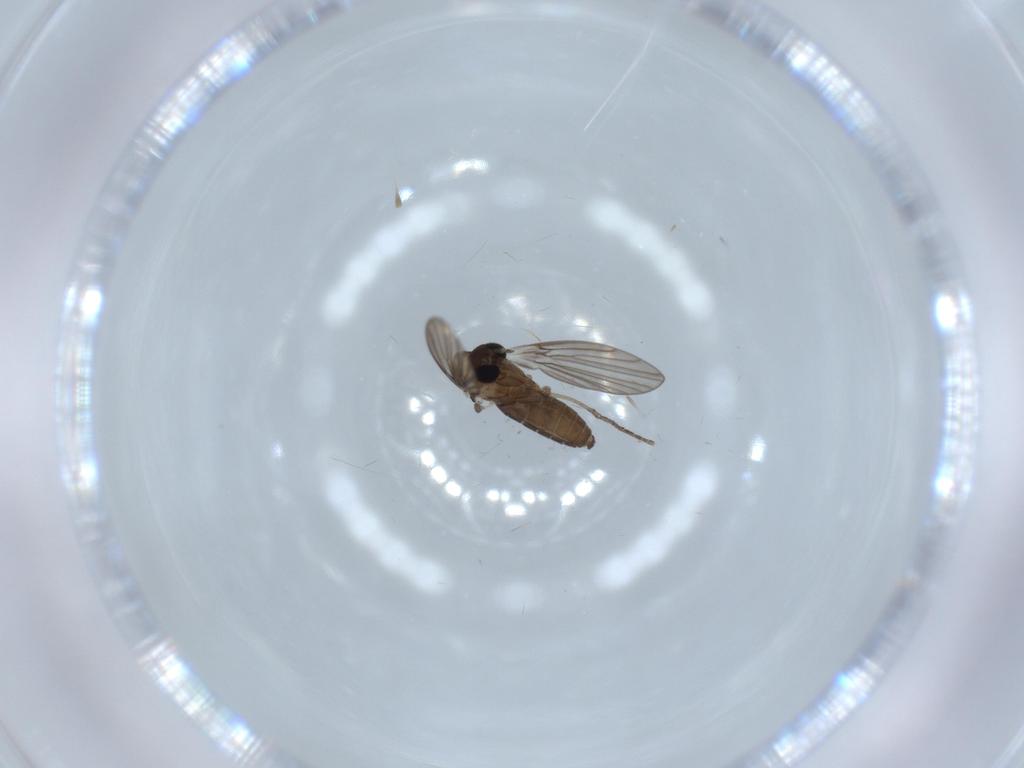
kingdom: Animalia
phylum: Arthropoda
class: Insecta
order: Diptera
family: Psychodidae
